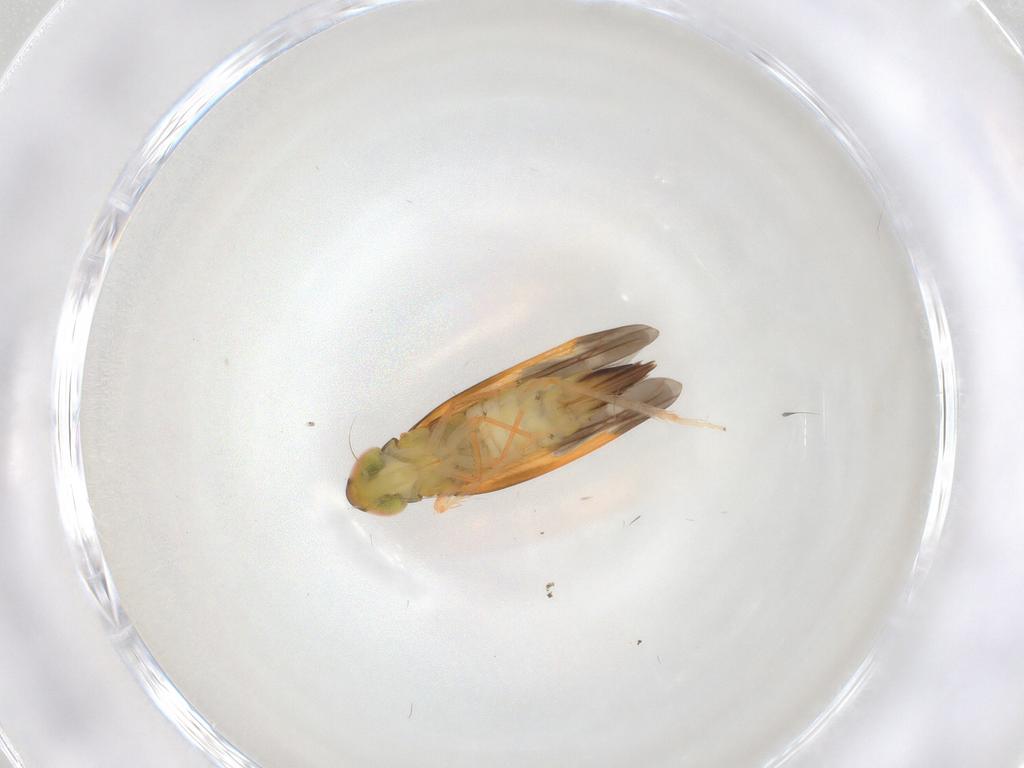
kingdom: Animalia
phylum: Arthropoda
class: Insecta
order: Hemiptera
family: Cicadellidae
